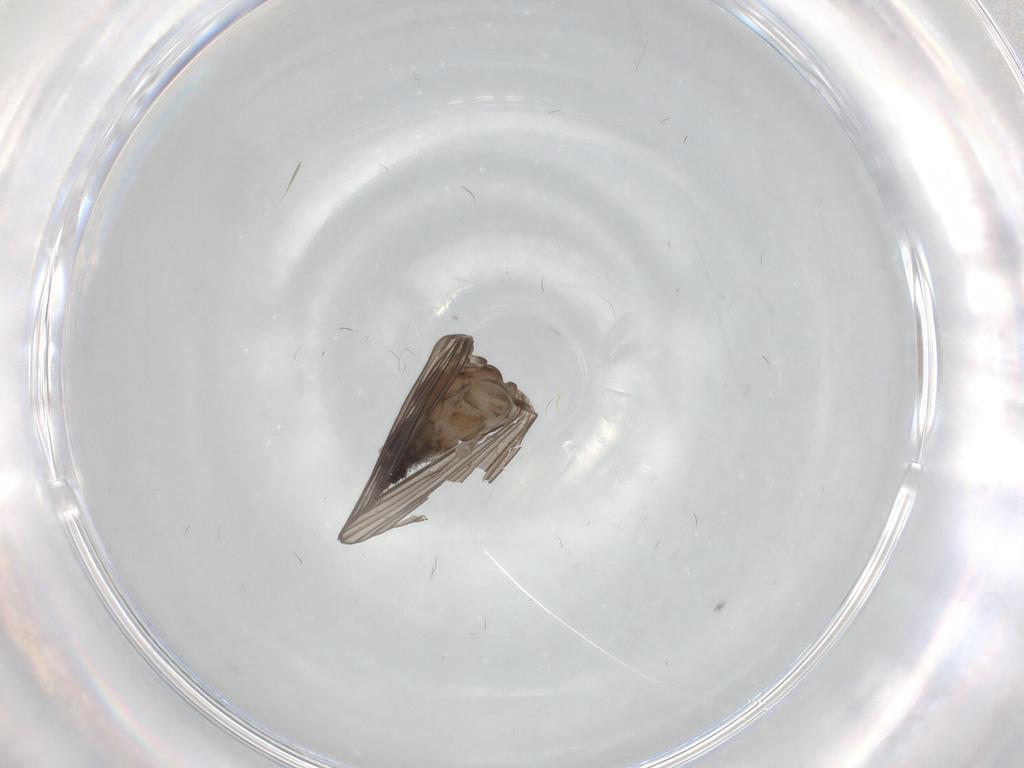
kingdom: Animalia
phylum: Arthropoda
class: Insecta
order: Diptera
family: Psychodidae
